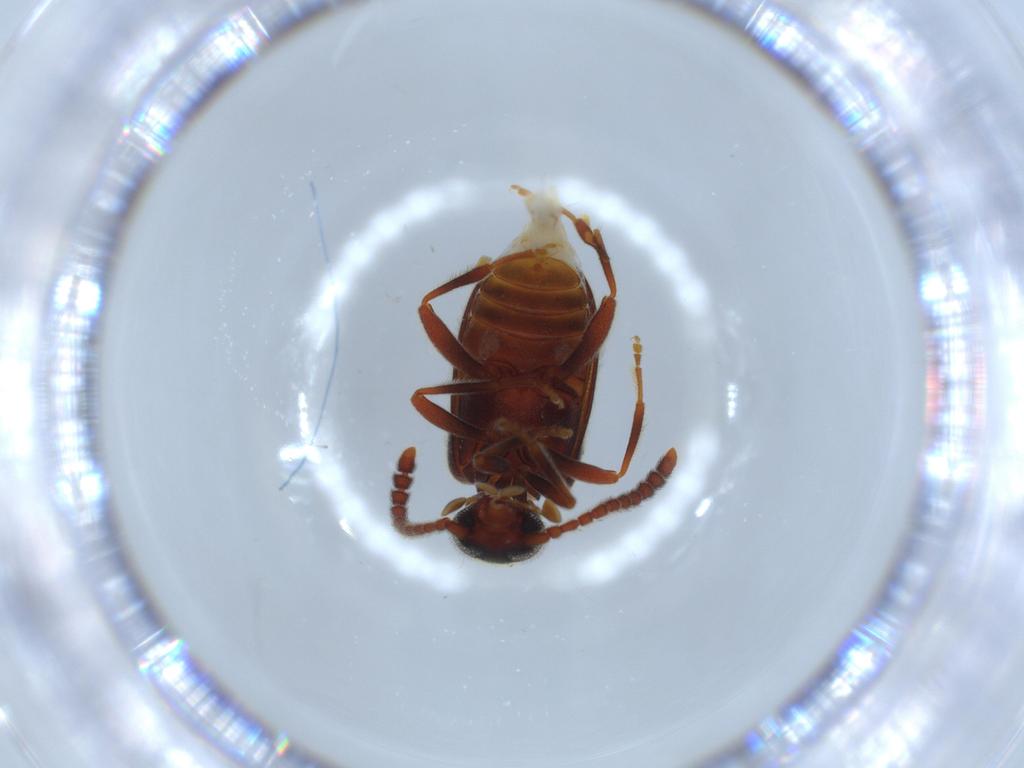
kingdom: Animalia
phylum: Arthropoda
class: Insecta
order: Coleoptera
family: Aderidae
